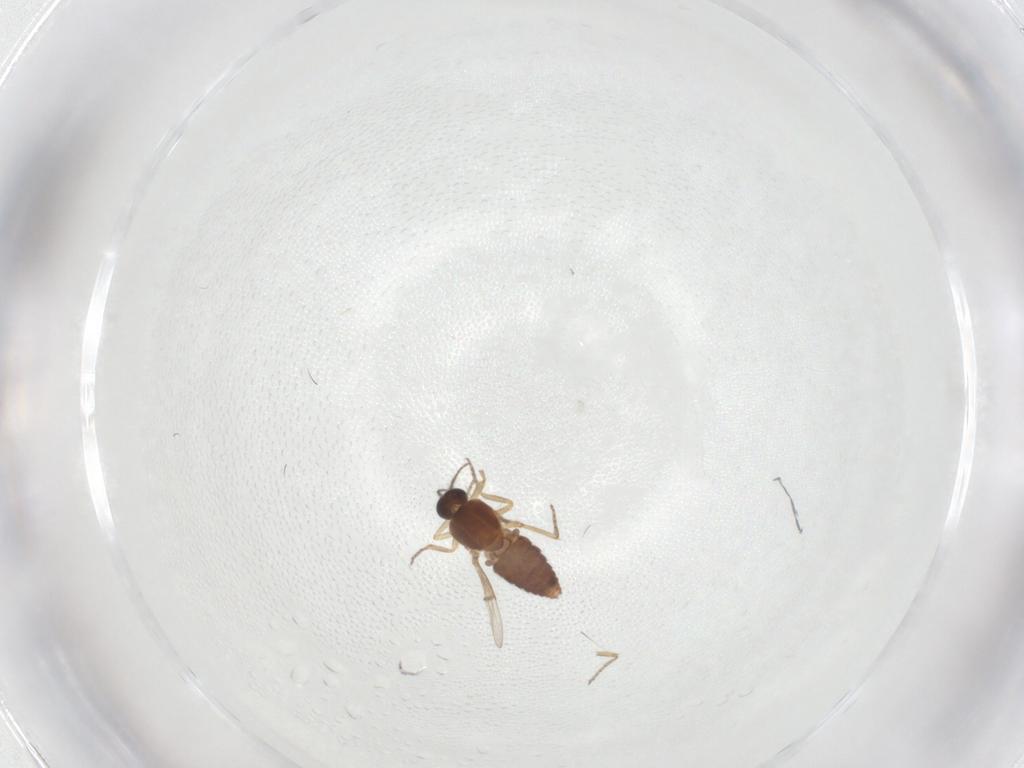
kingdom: Animalia
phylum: Arthropoda
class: Insecta
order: Diptera
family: Ceratopogonidae
